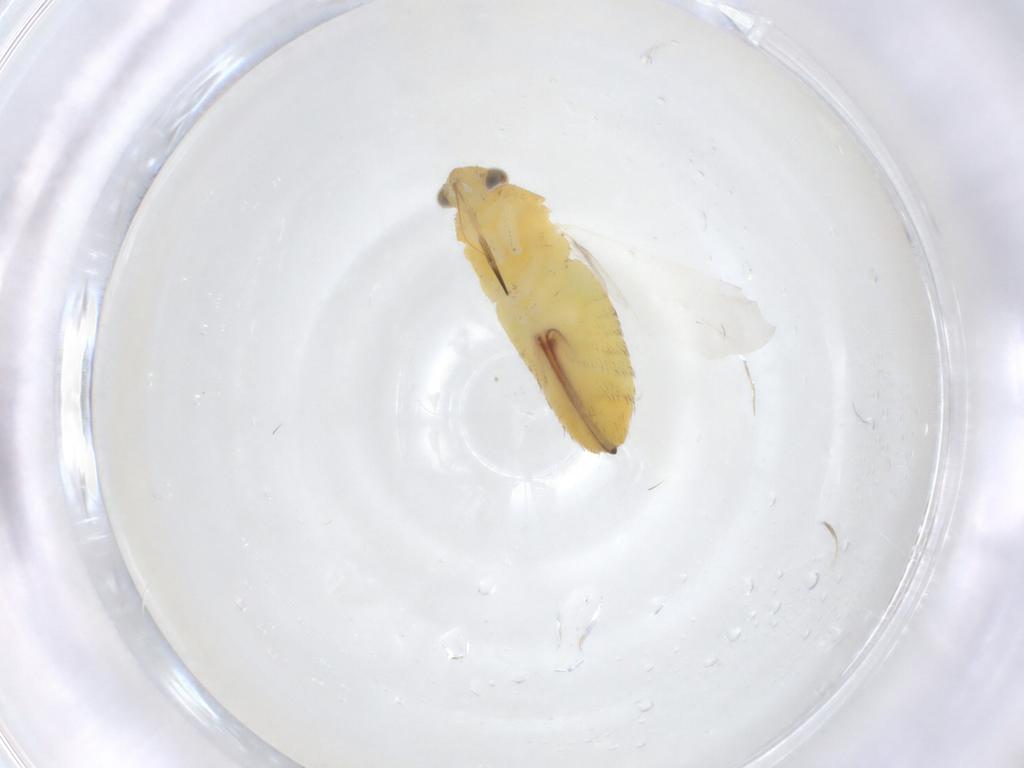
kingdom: Animalia
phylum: Arthropoda
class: Insecta
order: Hemiptera
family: Miridae
